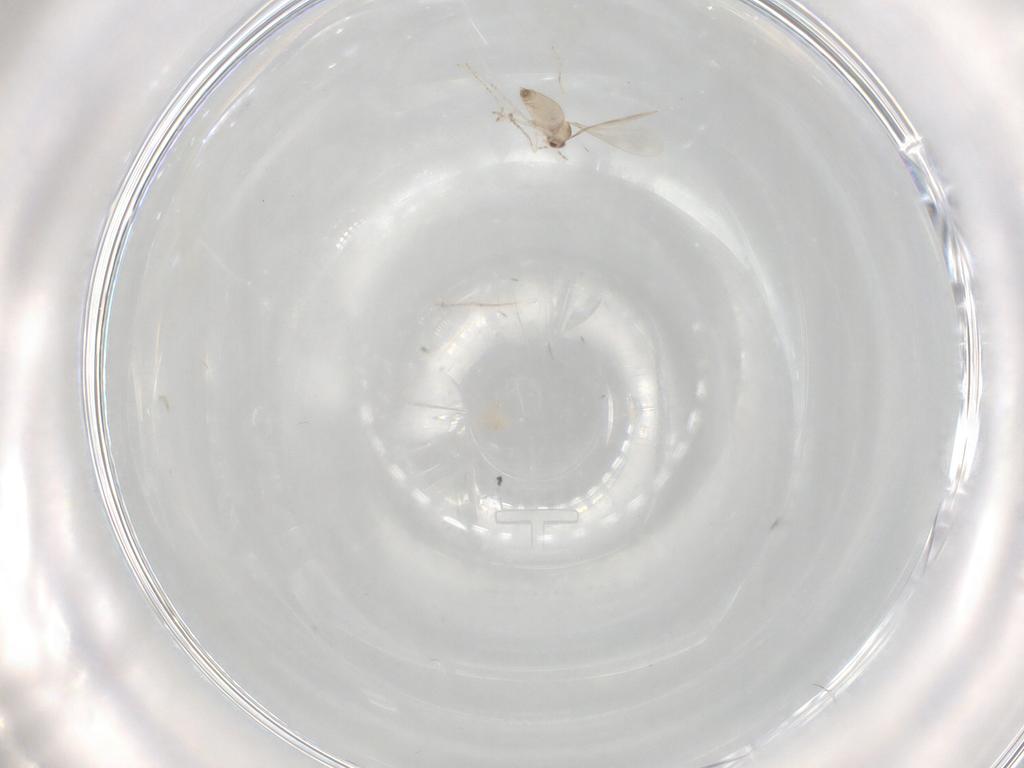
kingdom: Animalia
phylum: Arthropoda
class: Insecta
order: Diptera
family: Cecidomyiidae
